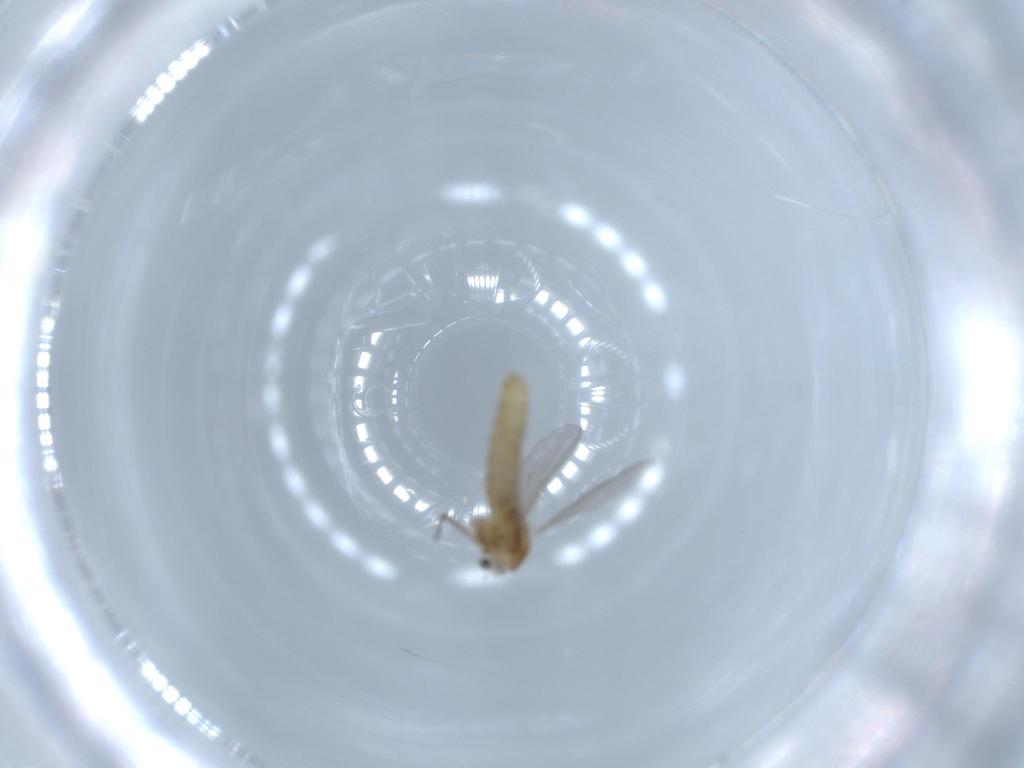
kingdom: Animalia
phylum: Arthropoda
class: Insecta
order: Diptera
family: Chironomidae
